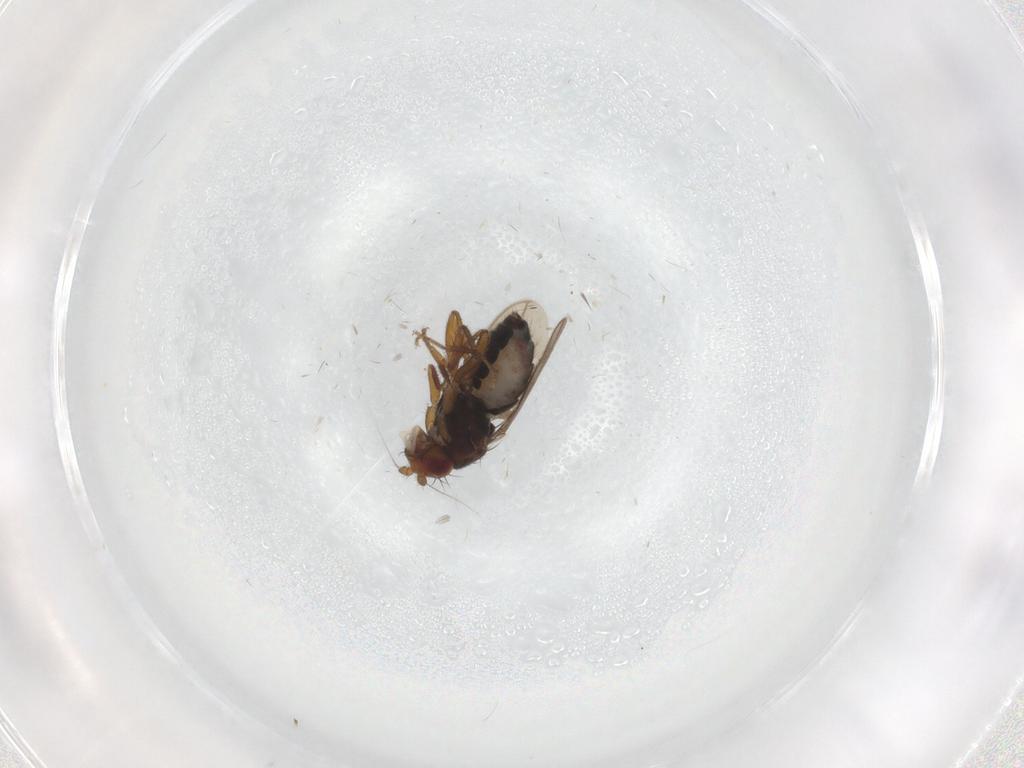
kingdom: Animalia
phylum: Arthropoda
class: Insecta
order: Diptera
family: Sphaeroceridae
